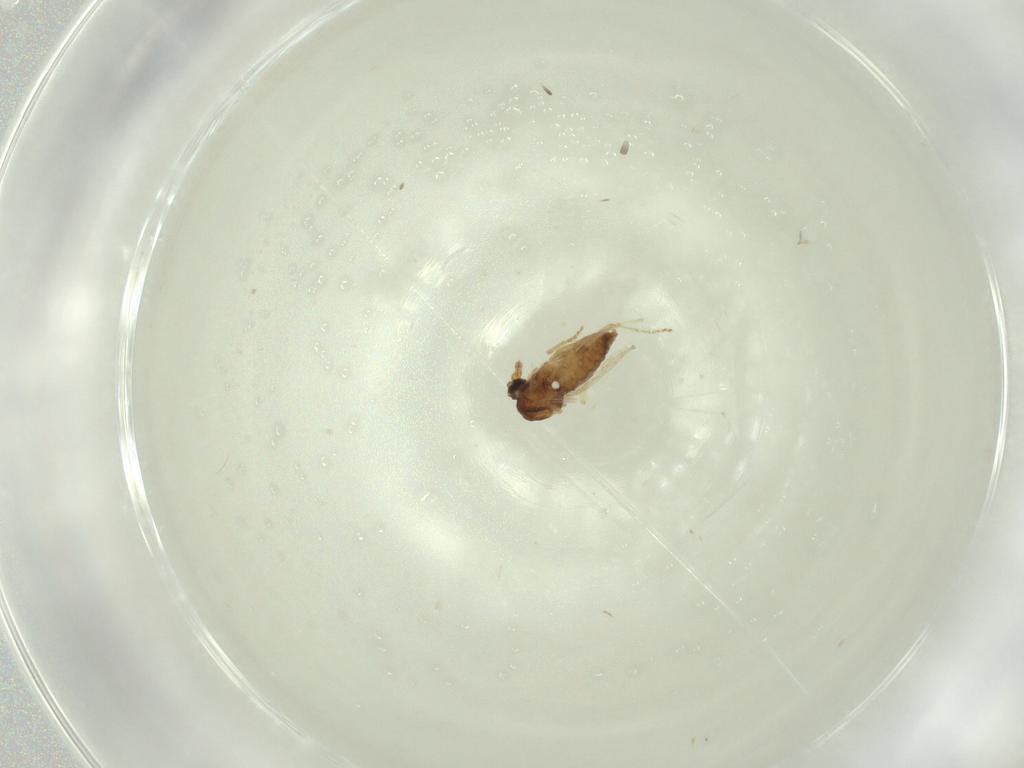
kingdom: Animalia
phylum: Arthropoda
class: Insecta
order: Diptera
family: Ceratopogonidae
